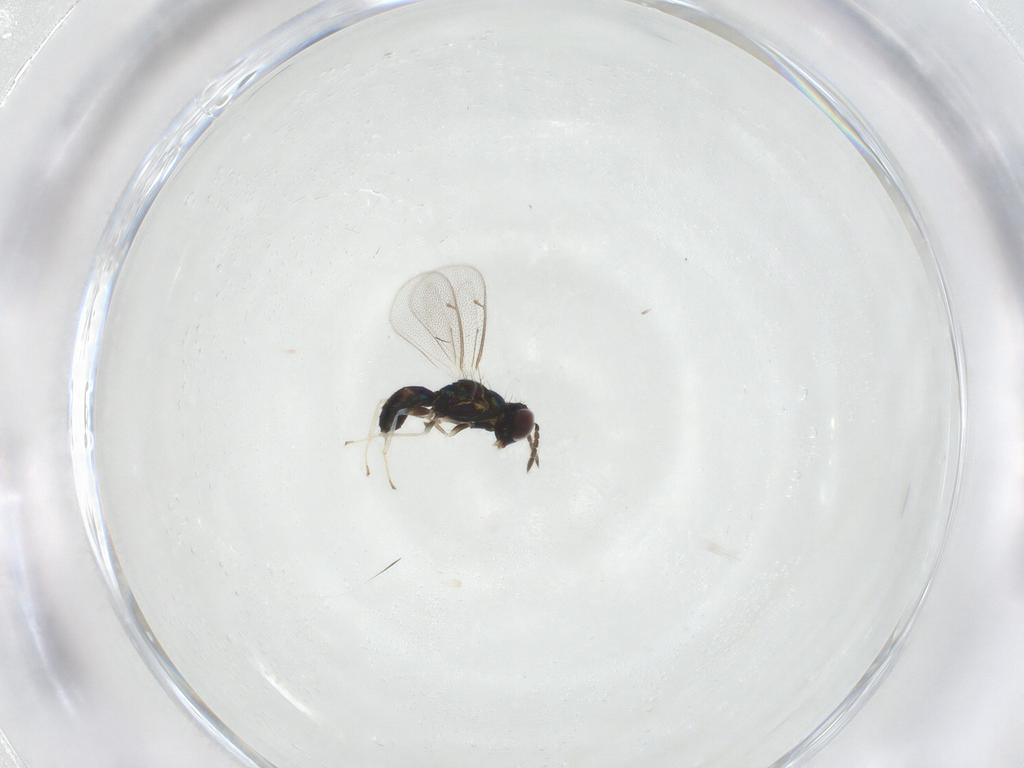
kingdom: Animalia
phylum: Arthropoda
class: Insecta
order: Hymenoptera
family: Eulophidae
